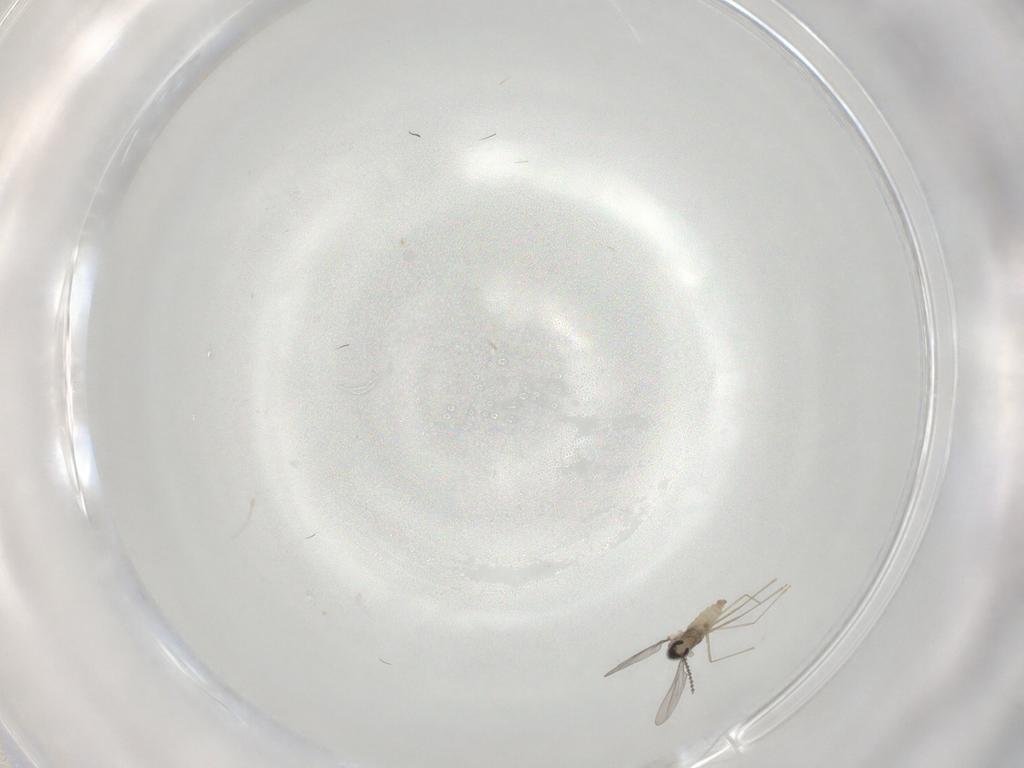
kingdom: Animalia
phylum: Arthropoda
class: Insecta
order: Diptera
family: Tabanidae
